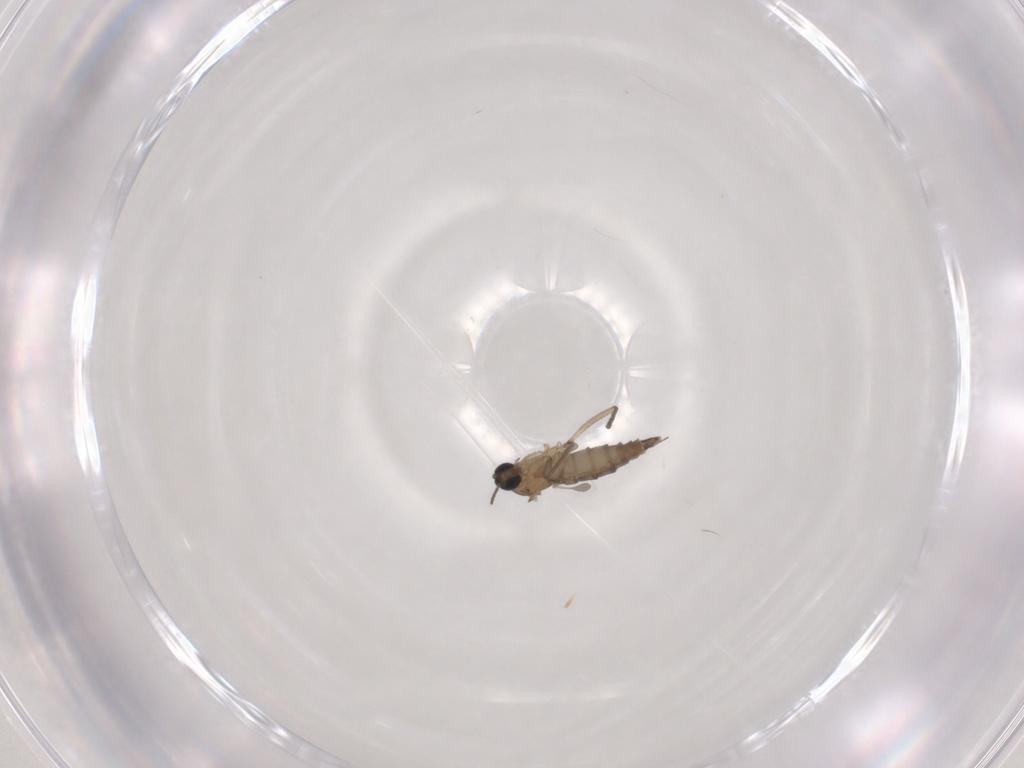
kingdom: Animalia
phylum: Arthropoda
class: Insecta
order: Diptera
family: Sciaridae
